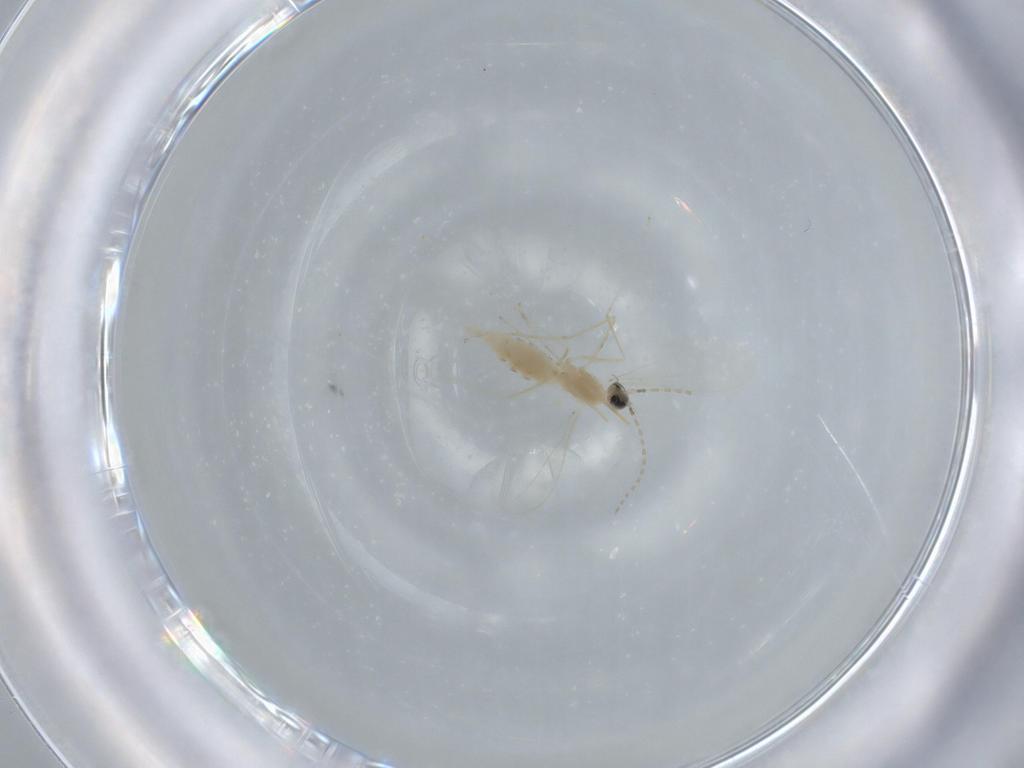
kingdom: Animalia
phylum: Arthropoda
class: Insecta
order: Diptera
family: Cecidomyiidae
